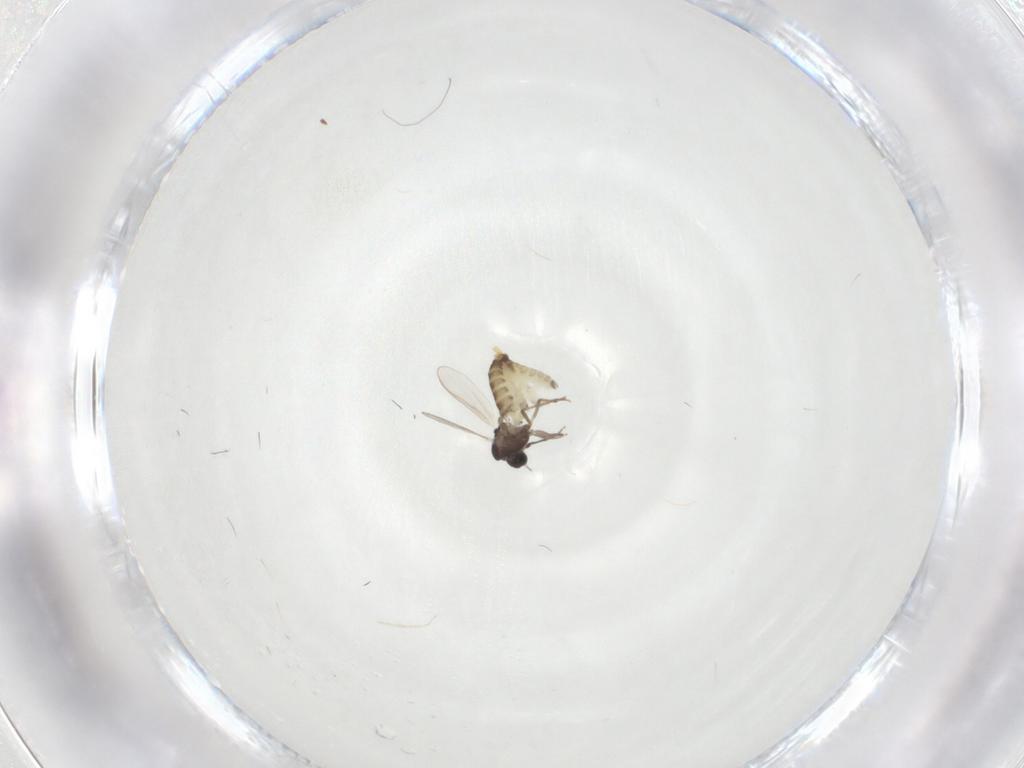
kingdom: Animalia
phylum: Arthropoda
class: Insecta
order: Diptera
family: Chironomidae
